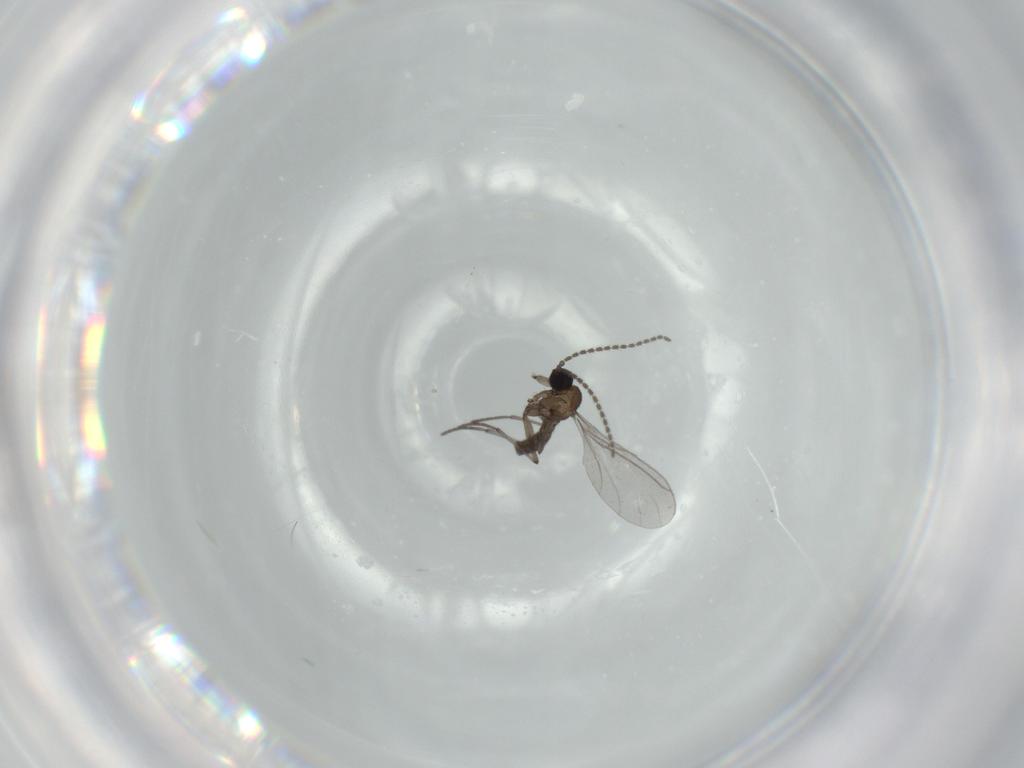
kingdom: Animalia
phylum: Arthropoda
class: Insecta
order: Diptera
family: Sciaridae
